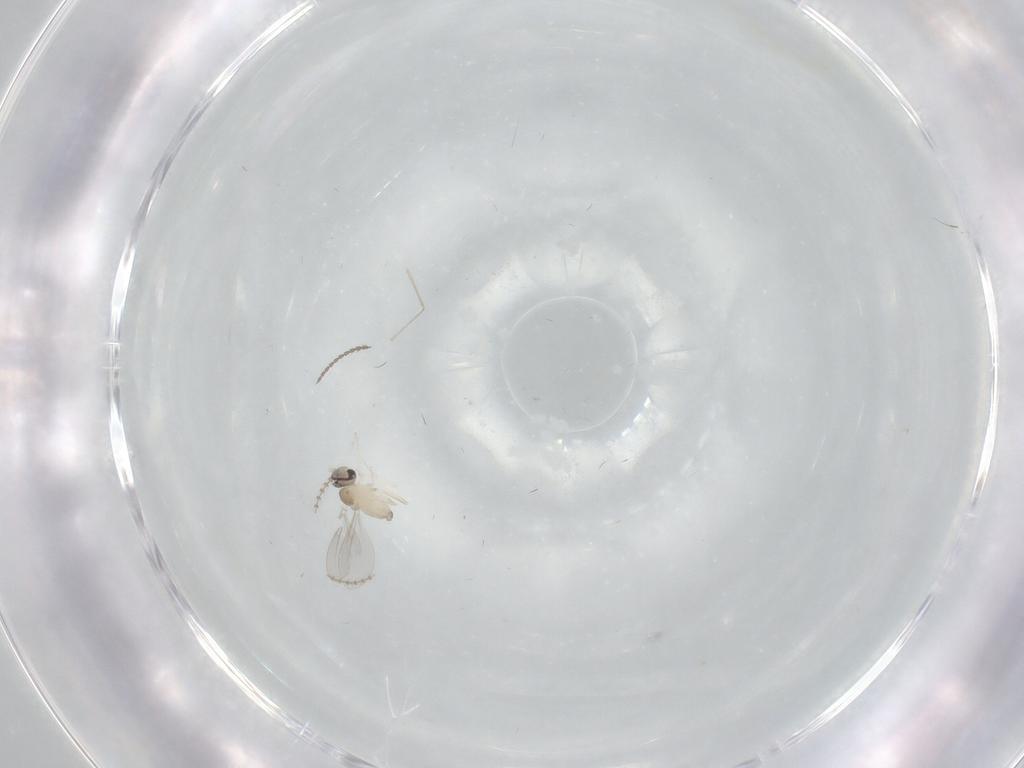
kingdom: Animalia
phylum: Arthropoda
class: Insecta
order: Diptera
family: Cecidomyiidae
